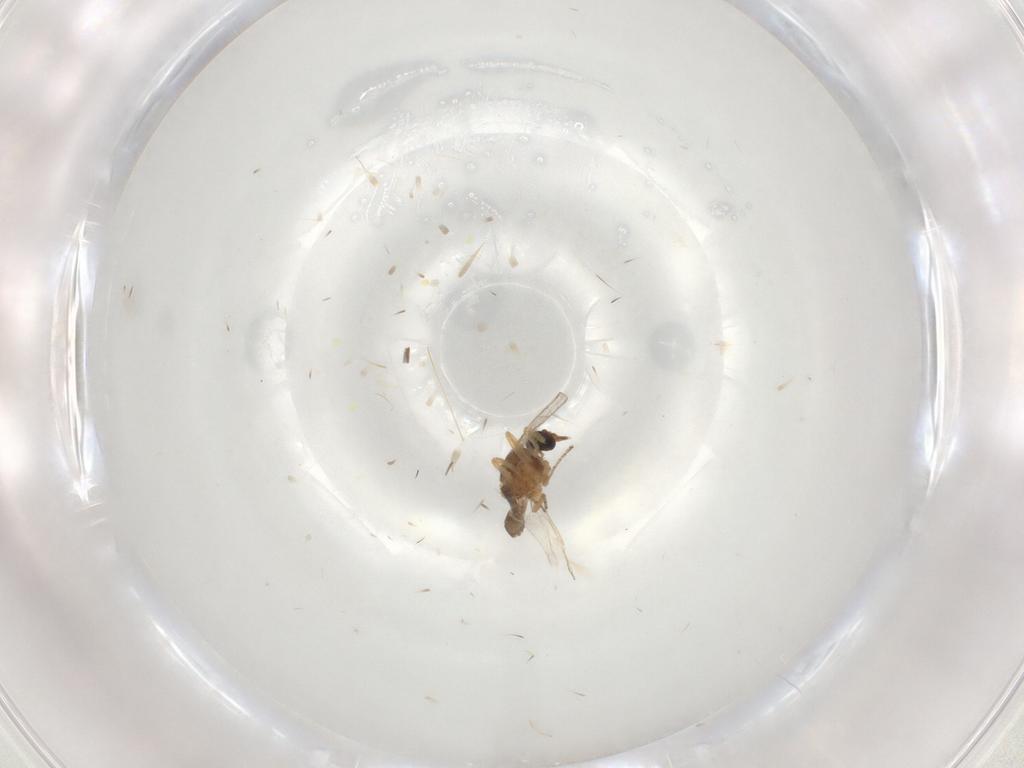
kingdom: Animalia
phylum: Arthropoda
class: Insecta
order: Diptera
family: Ceratopogonidae
